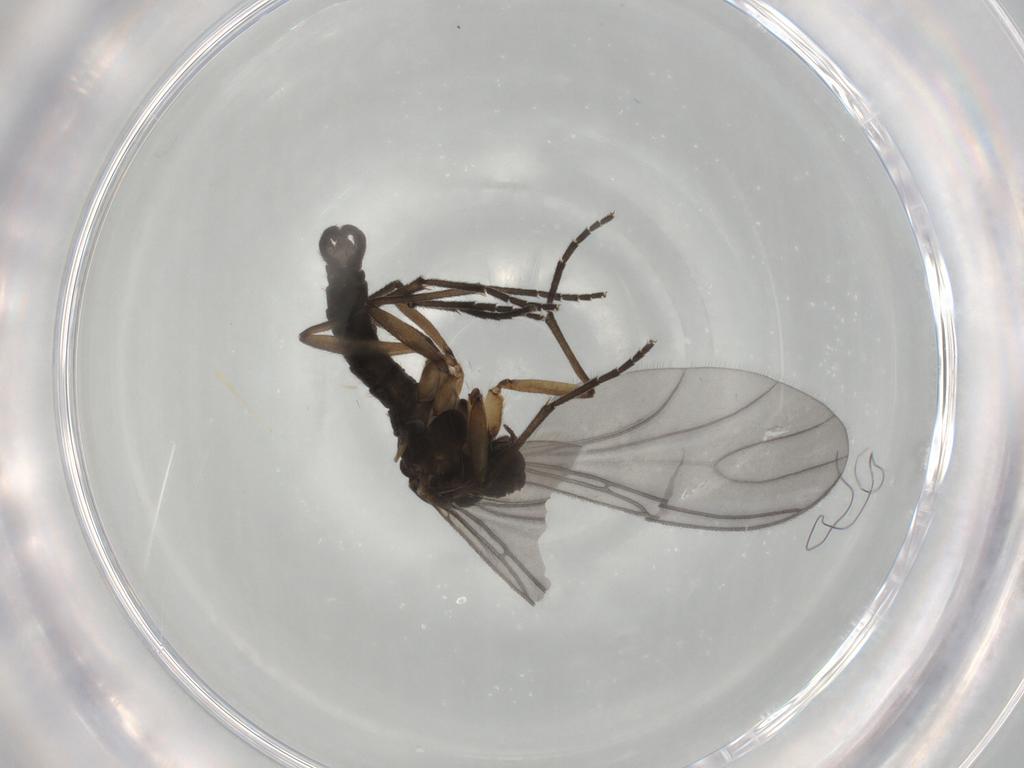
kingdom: Animalia
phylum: Arthropoda
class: Insecta
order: Diptera
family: Sciaridae
